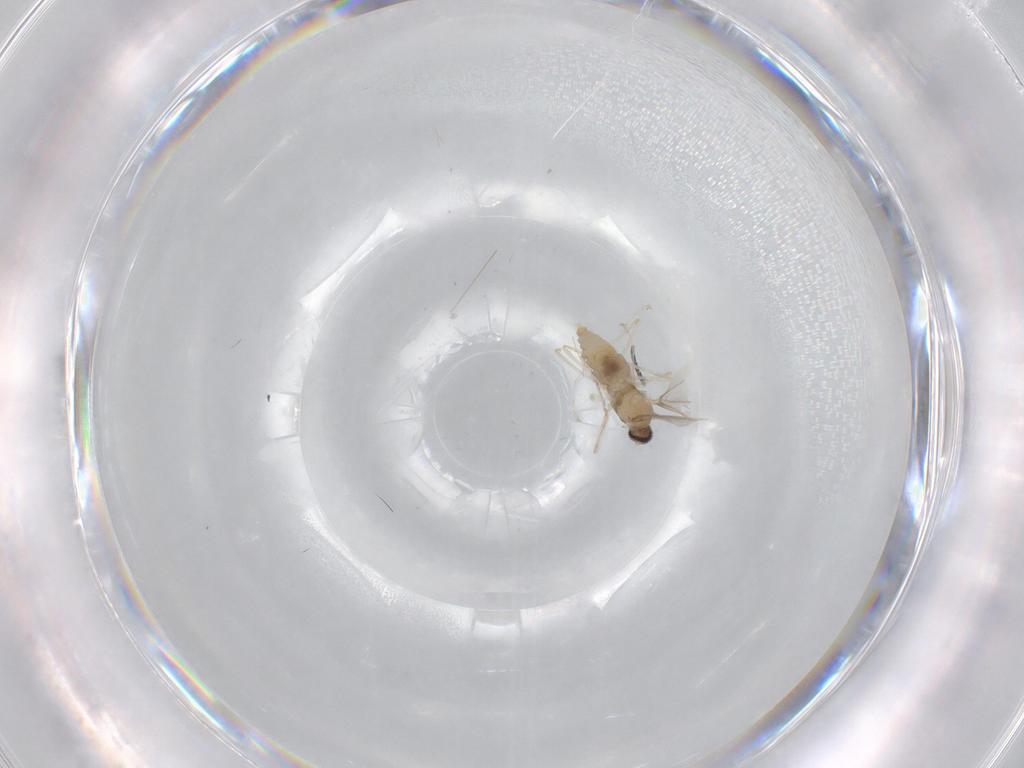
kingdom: Animalia
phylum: Arthropoda
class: Insecta
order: Diptera
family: Cecidomyiidae
